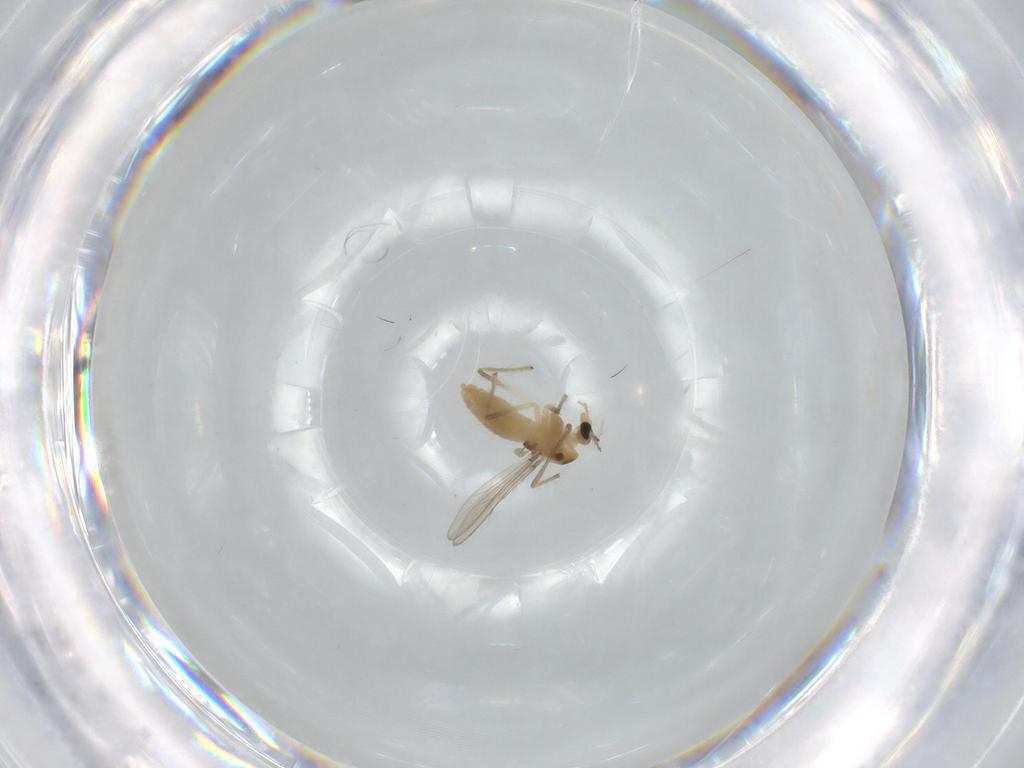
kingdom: Animalia
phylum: Arthropoda
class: Insecta
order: Diptera
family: Chironomidae
